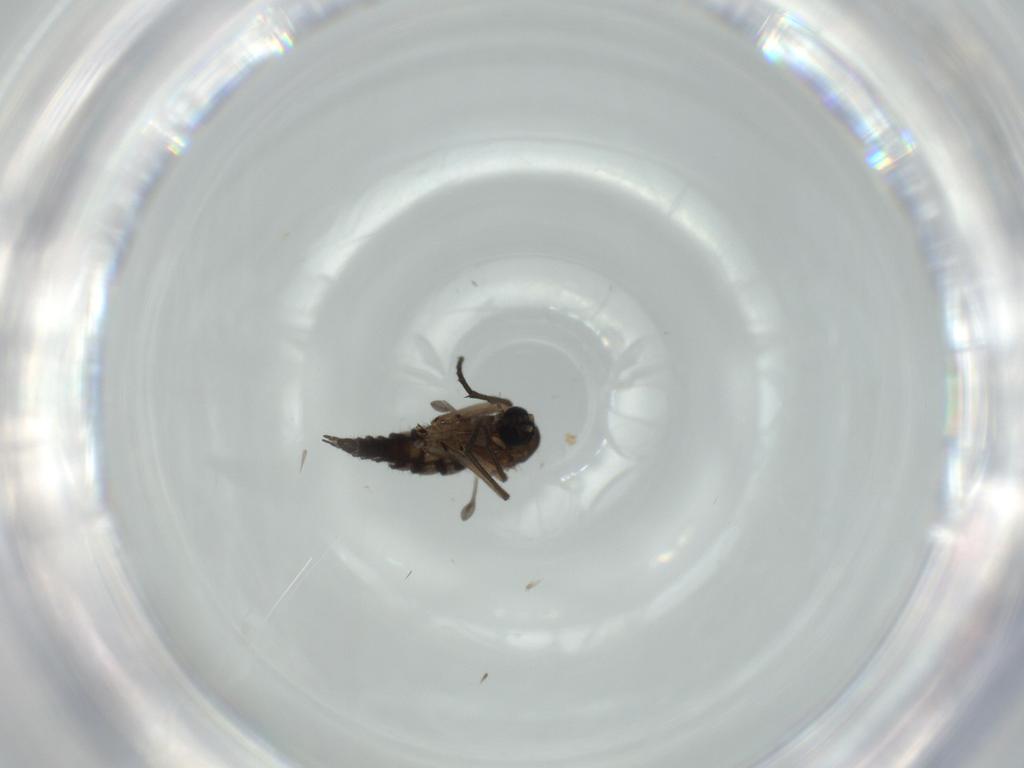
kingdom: Animalia
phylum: Arthropoda
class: Insecta
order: Diptera
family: Sciaridae
